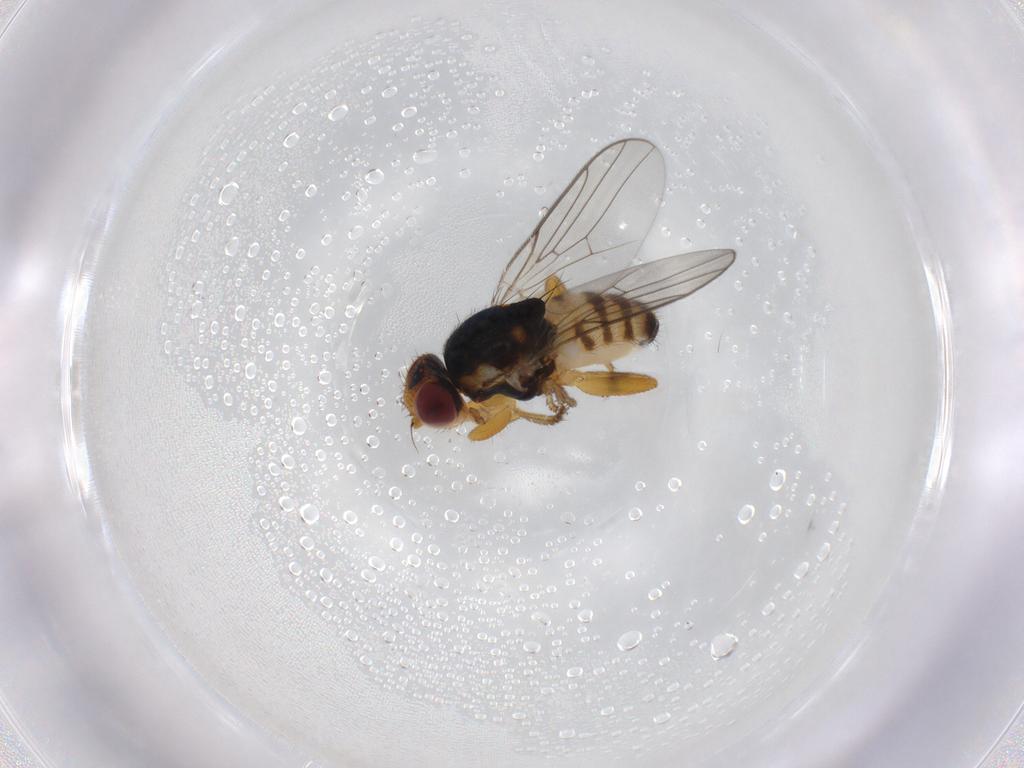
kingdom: Animalia
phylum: Arthropoda
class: Insecta
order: Diptera
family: Chloropidae
